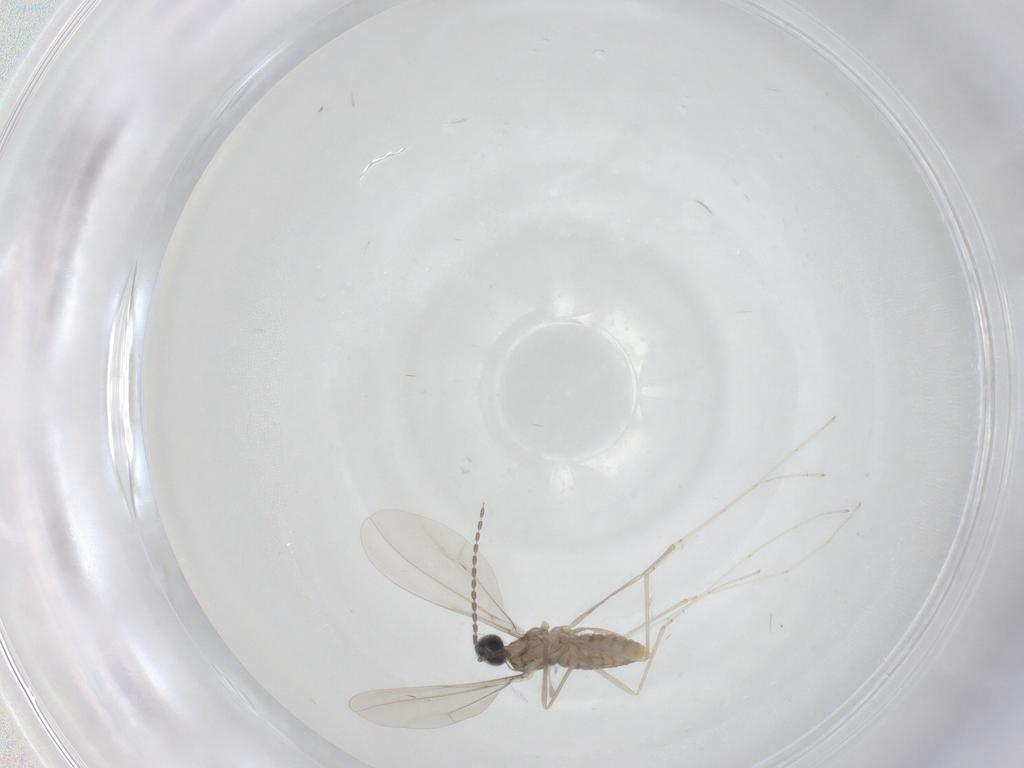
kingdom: Animalia
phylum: Arthropoda
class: Insecta
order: Diptera
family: Cecidomyiidae
